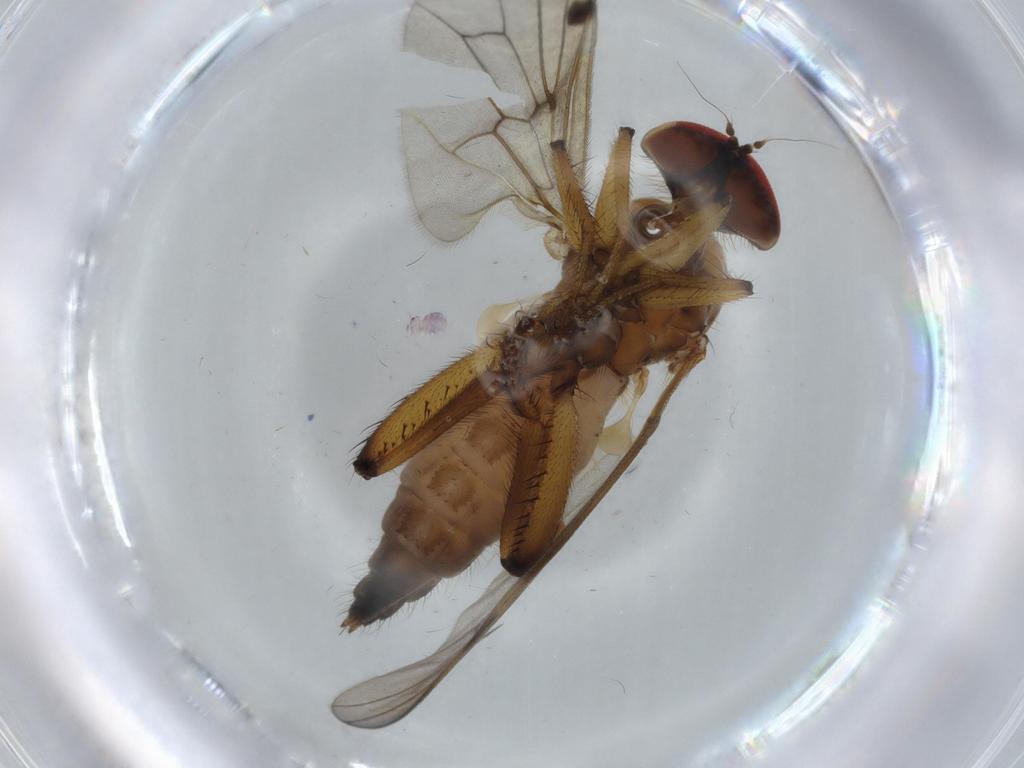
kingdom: Animalia
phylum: Arthropoda
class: Insecta
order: Diptera
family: Hybotidae
